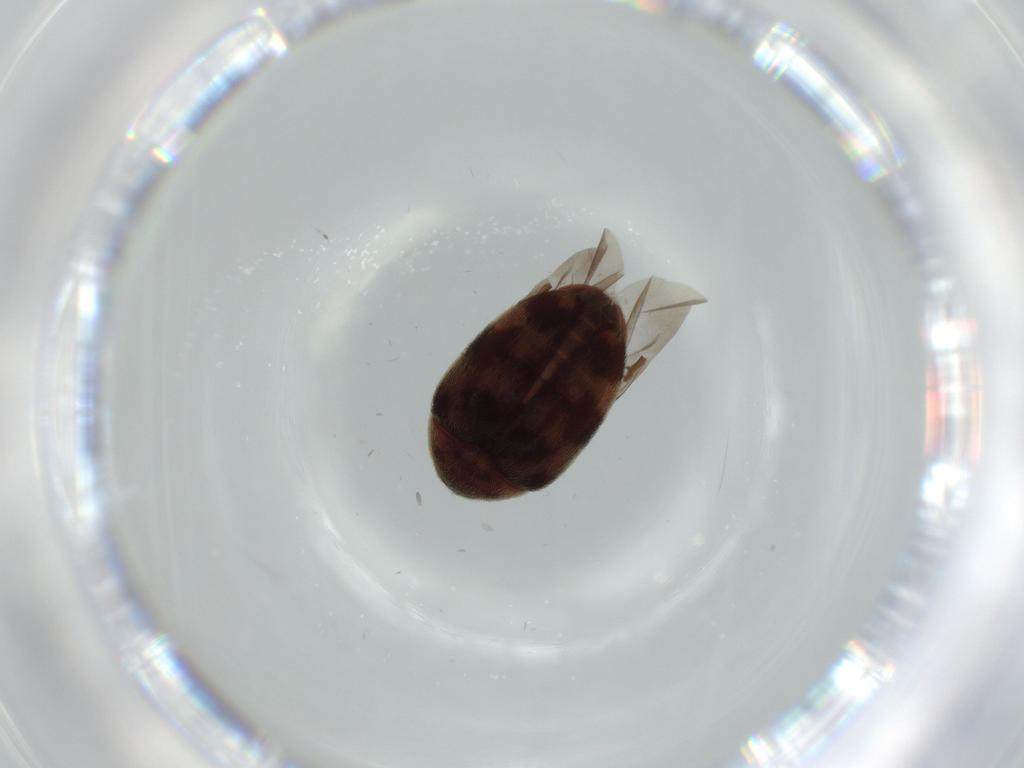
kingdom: Animalia
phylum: Arthropoda
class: Insecta
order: Coleoptera
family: Dermestidae
